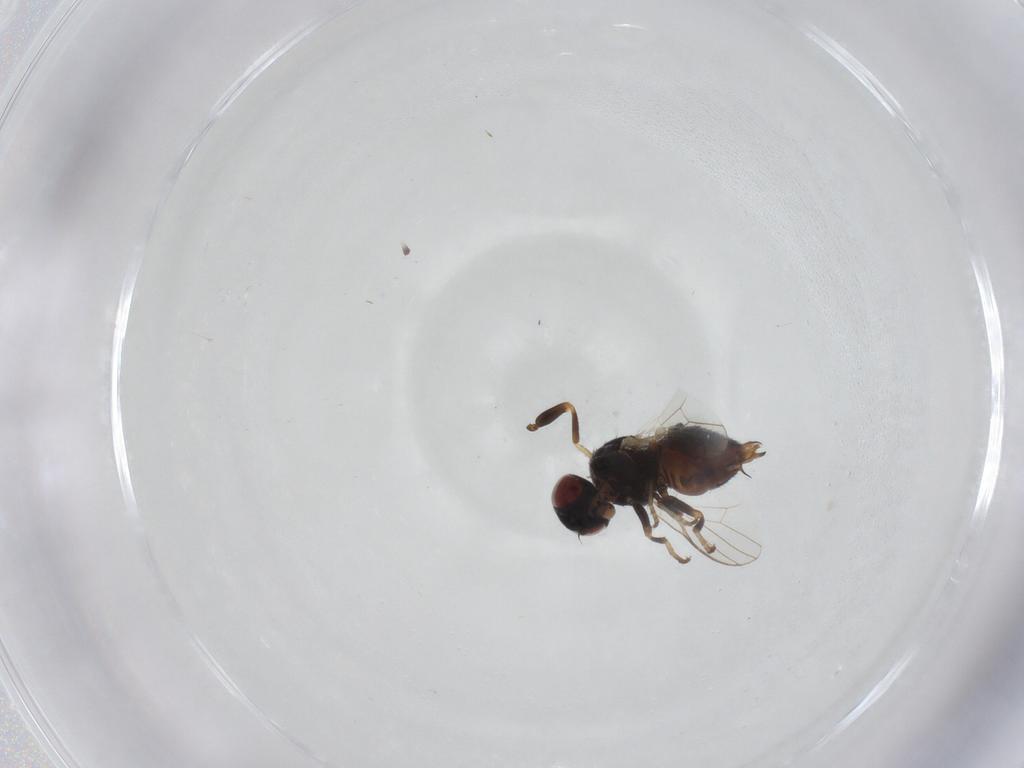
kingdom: Animalia
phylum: Arthropoda
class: Insecta
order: Diptera
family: Chamaemyiidae
